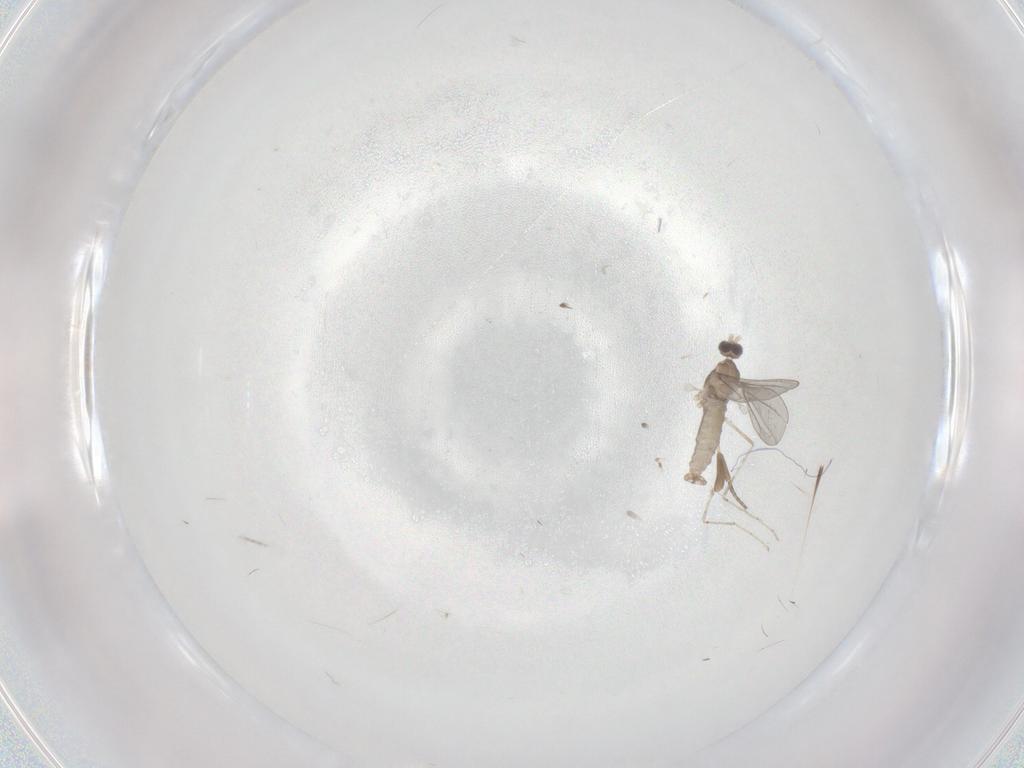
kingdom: Animalia
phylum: Arthropoda
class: Insecta
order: Diptera
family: Cecidomyiidae
